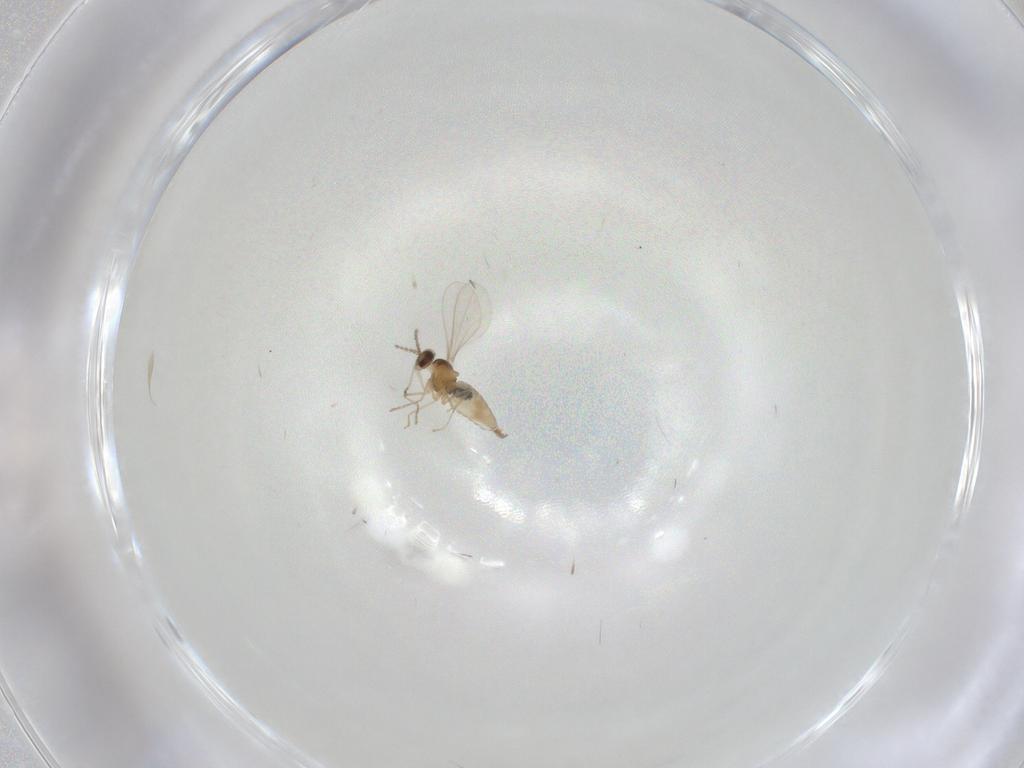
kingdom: Animalia
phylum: Arthropoda
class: Insecta
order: Diptera
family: Cecidomyiidae
